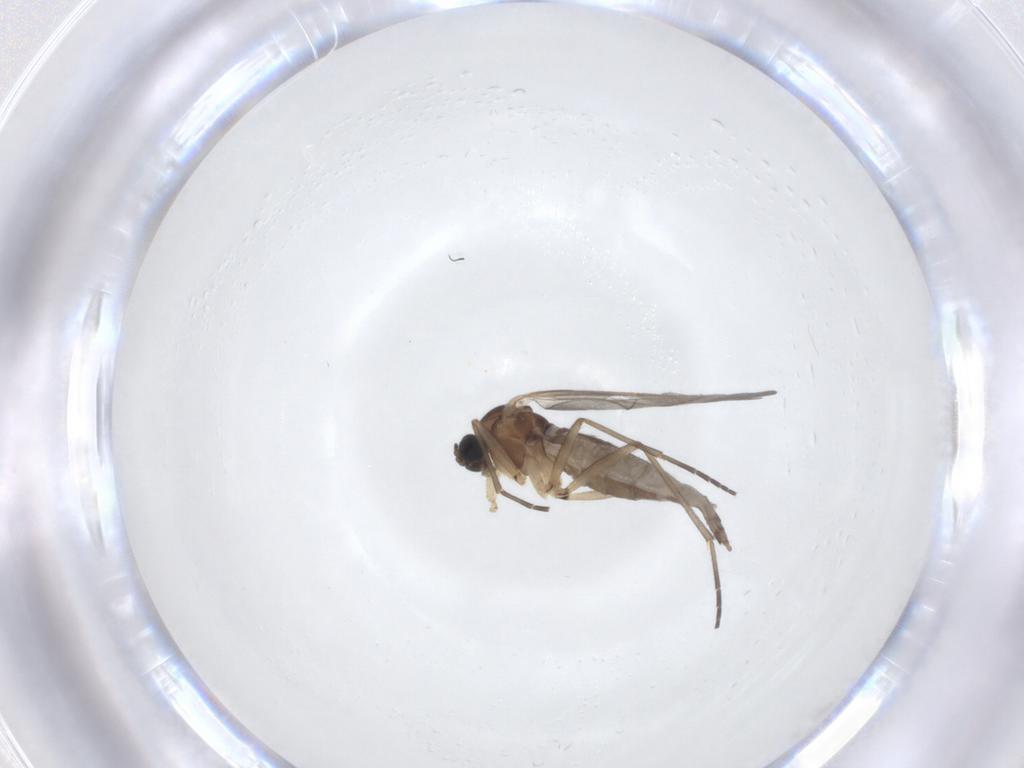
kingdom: Animalia
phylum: Arthropoda
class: Insecta
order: Diptera
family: Sciaridae
